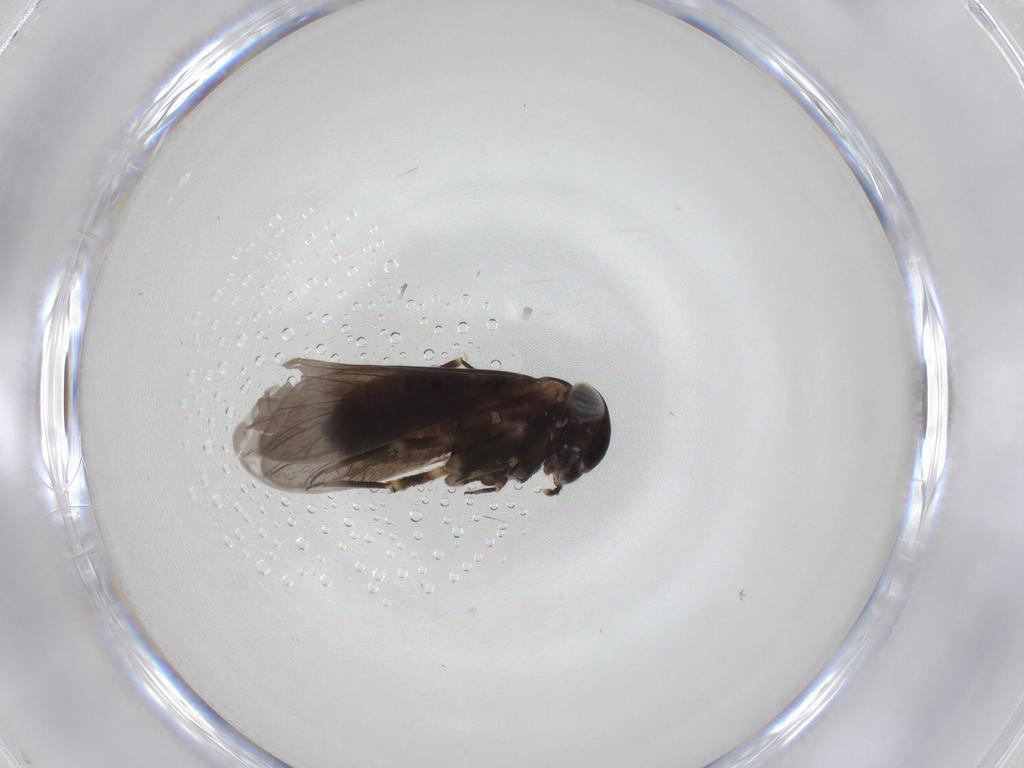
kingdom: Animalia
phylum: Arthropoda
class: Insecta
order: Psocodea
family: Amphientomidae
